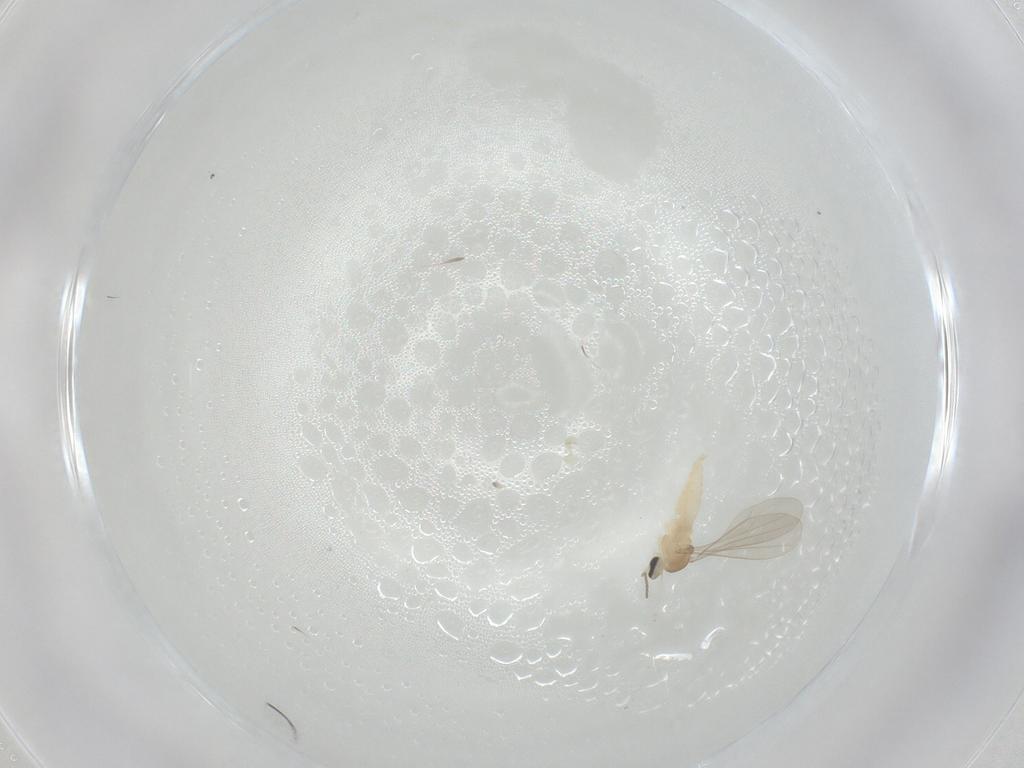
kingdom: Animalia
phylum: Arthropoda
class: Insecta
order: Diptera
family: Cecidomyiidae
